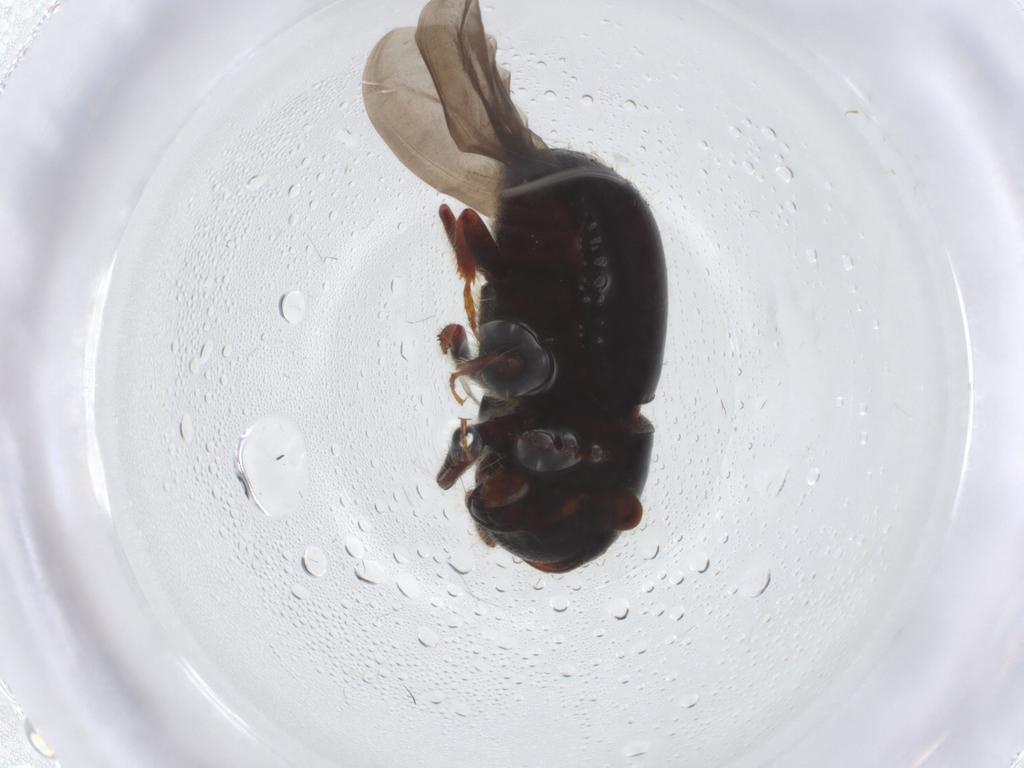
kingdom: Animalia
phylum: Arthropoda
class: Insecta
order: Coleoptera
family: Curculionidae
